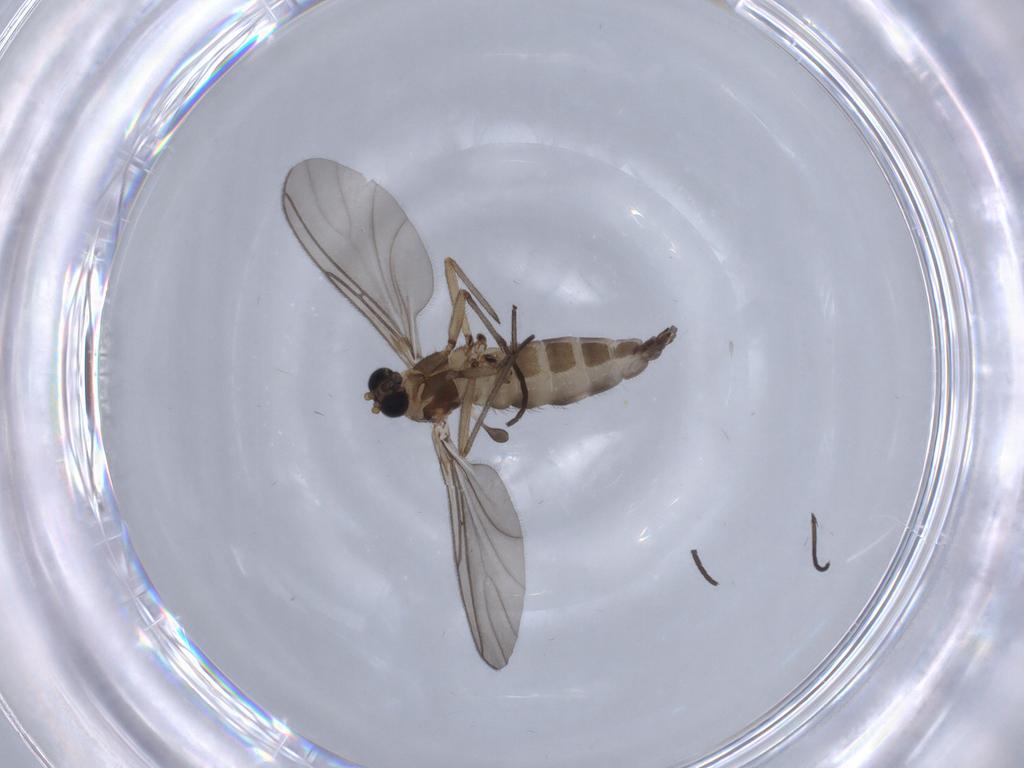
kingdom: Animalia
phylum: Arthropoda
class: Insecta
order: Diptera
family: Sciaridae
